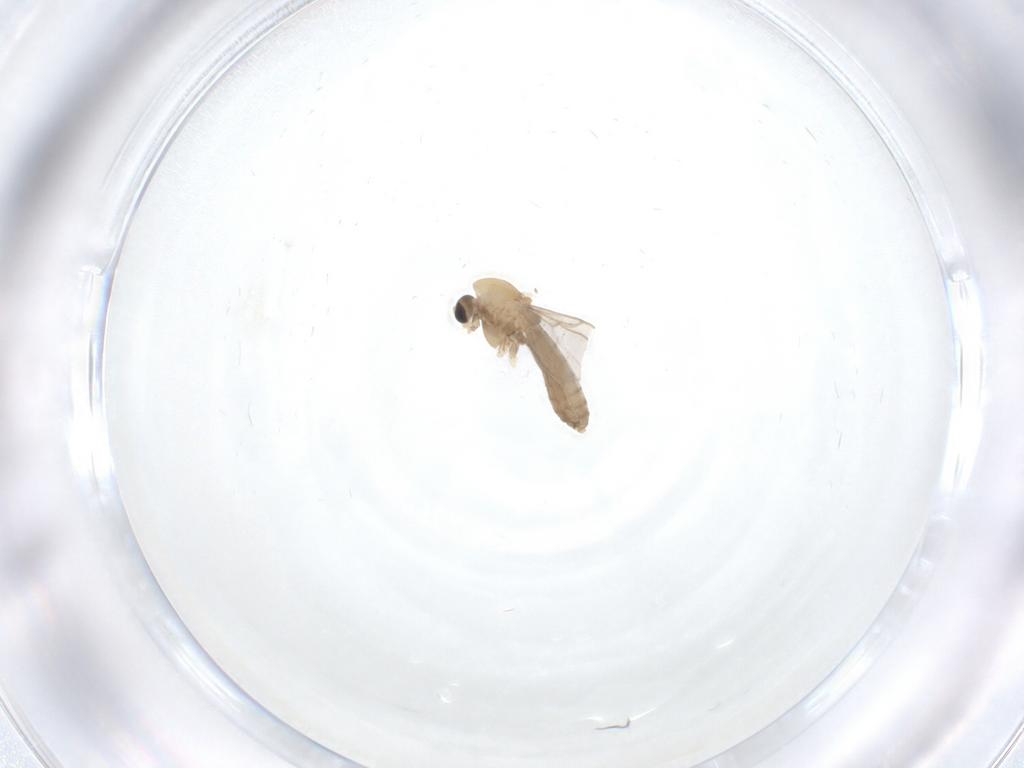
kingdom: Animalia
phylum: Arthropoda
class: Insecta
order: Diptera
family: Chironomidae
